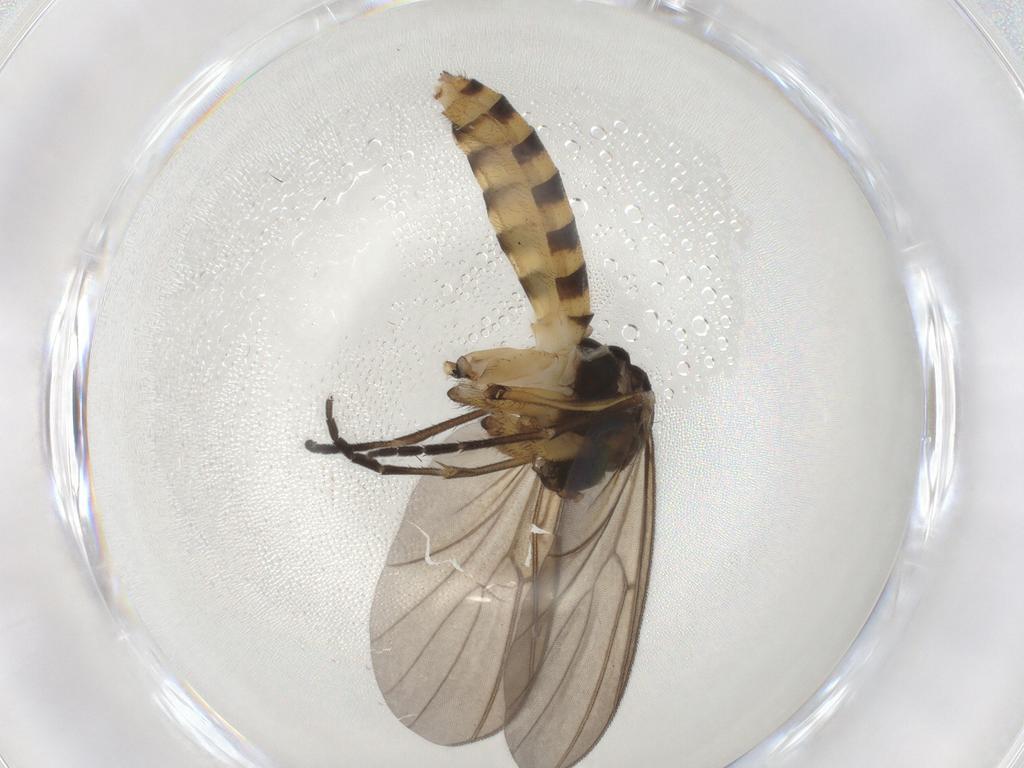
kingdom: Animalia
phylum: Arthropoda
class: Insecta
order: Diptera
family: Mycetophilidae
